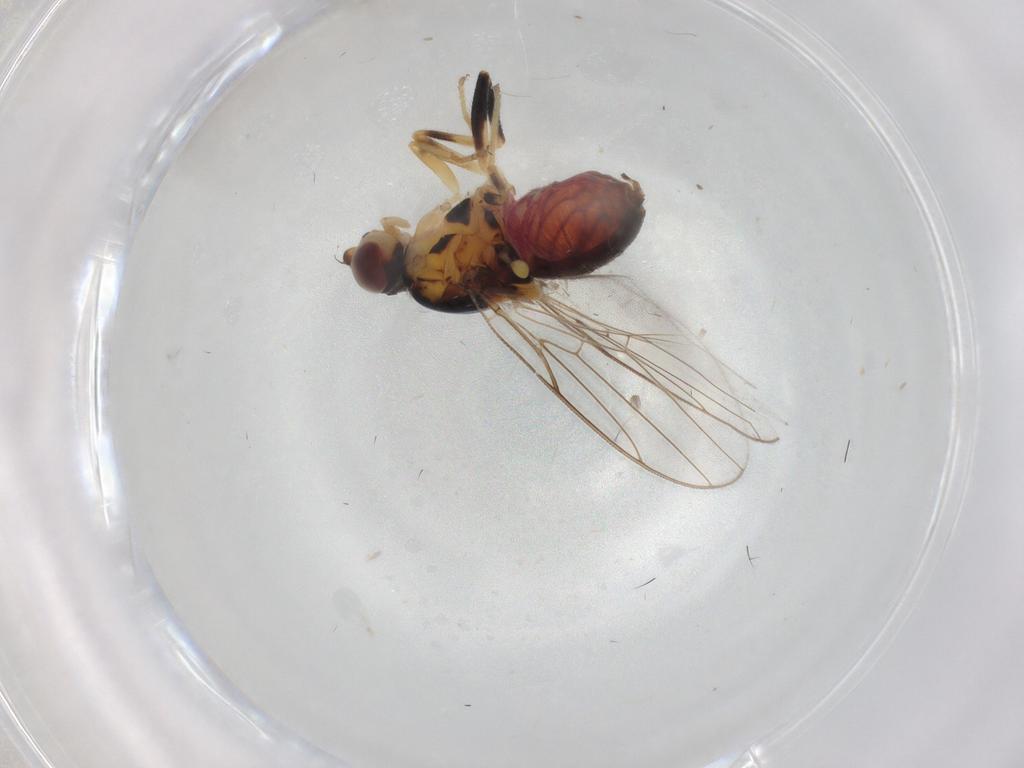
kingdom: Animalia
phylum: Arthropoda
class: Insecta
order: Diptera
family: Chloropidae
